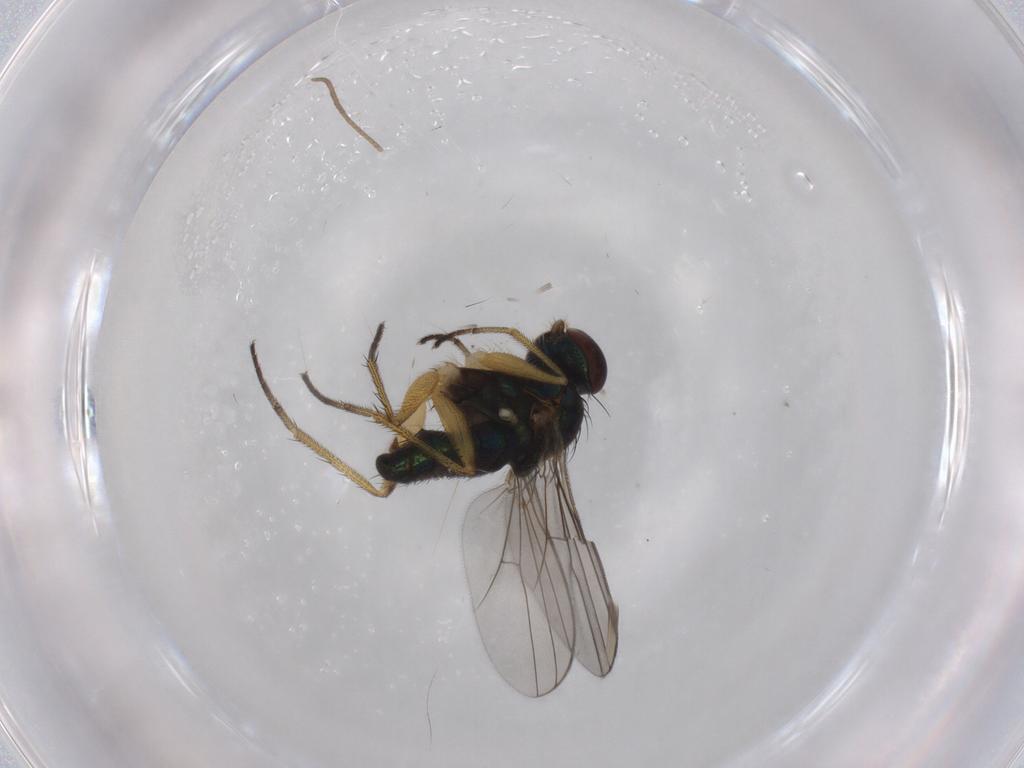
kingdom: Animalia
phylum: Arthropoda
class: Insecta
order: Diptera
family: Dolichopodidae
